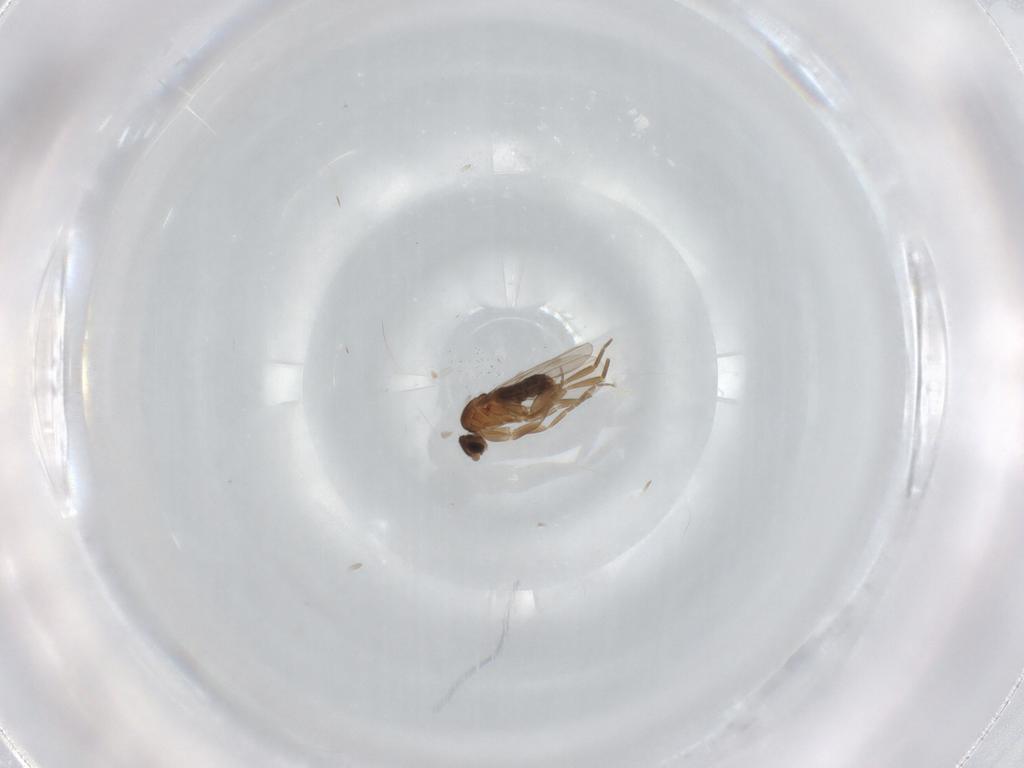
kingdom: Animalia
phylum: Arthropoda
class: Insecta
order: Diptera
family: Phoridae
